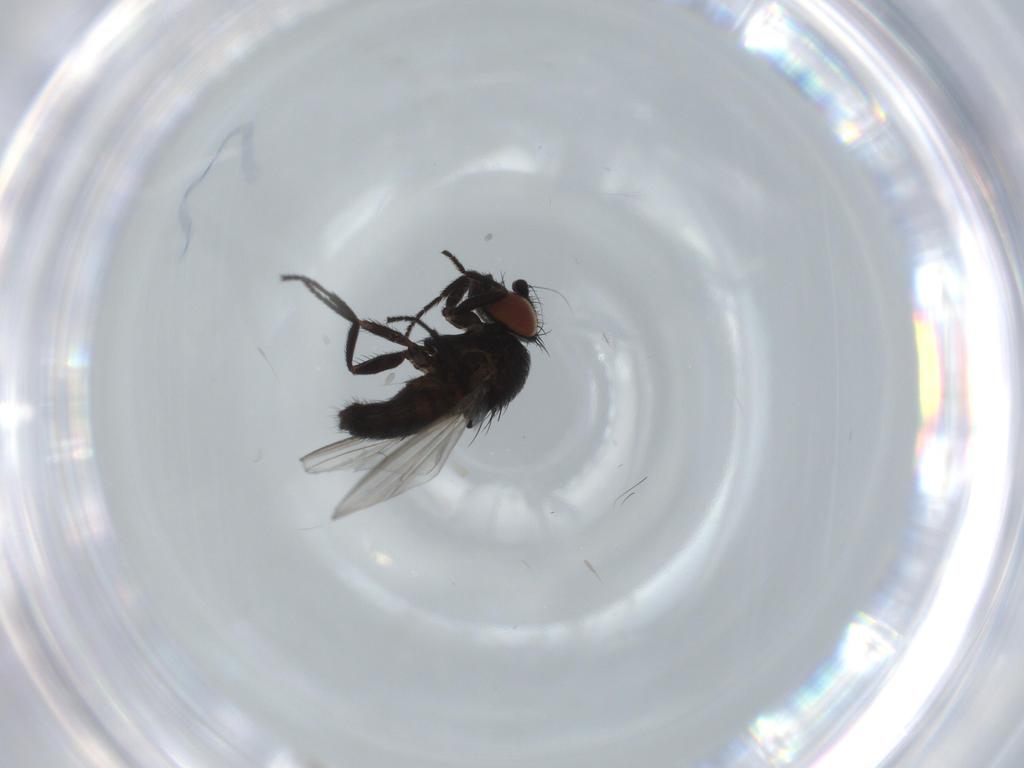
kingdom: Animalia
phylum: Arthropoda
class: Insecta
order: Diptera
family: Milichiidae
